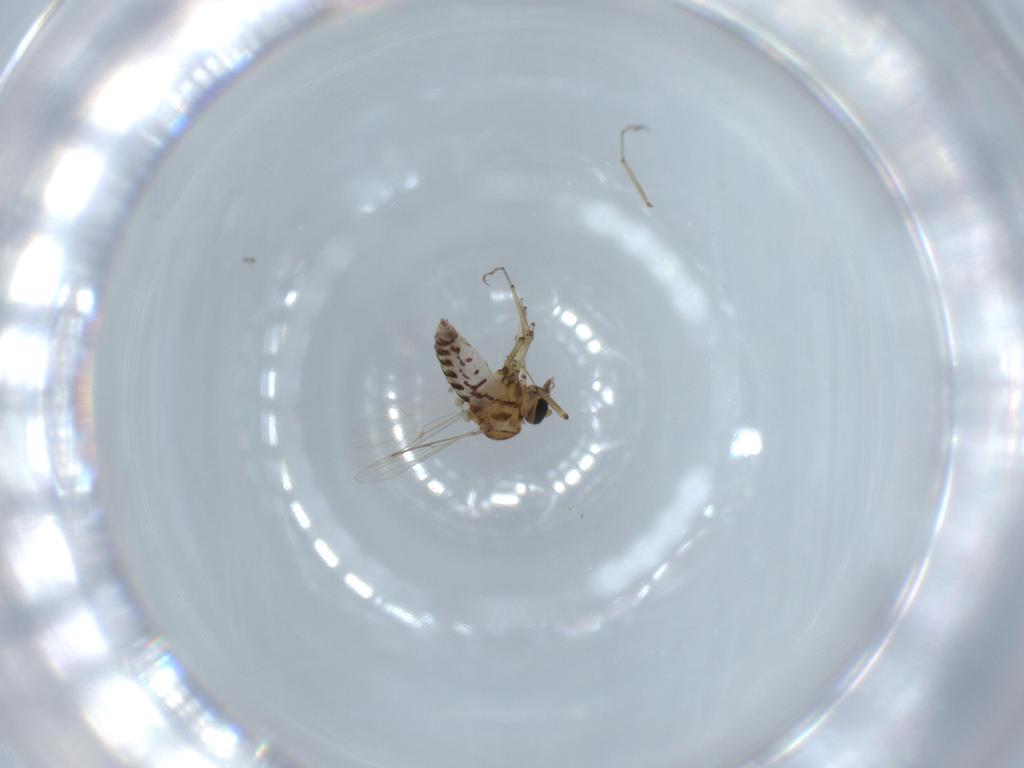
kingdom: Animalia
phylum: Arthropoda
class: Insecta
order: Diptera
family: Ceratopogonidae
